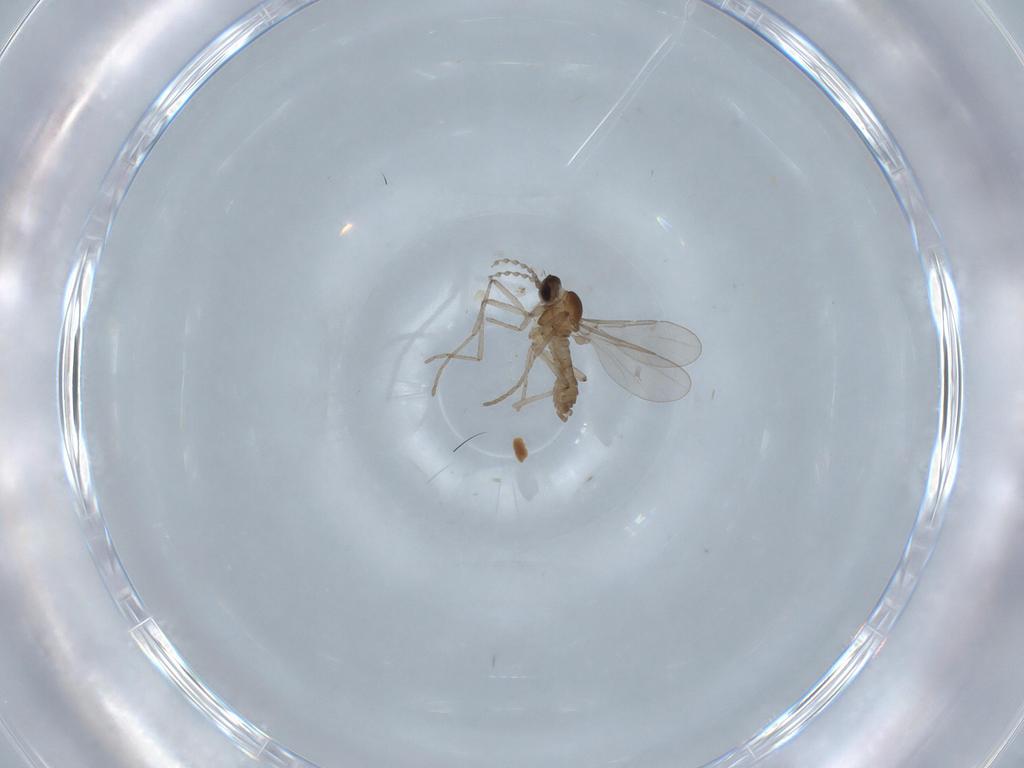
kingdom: Animalia
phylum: Arthropoda
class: Insecta
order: Diptera
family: Cecidomyiidae
